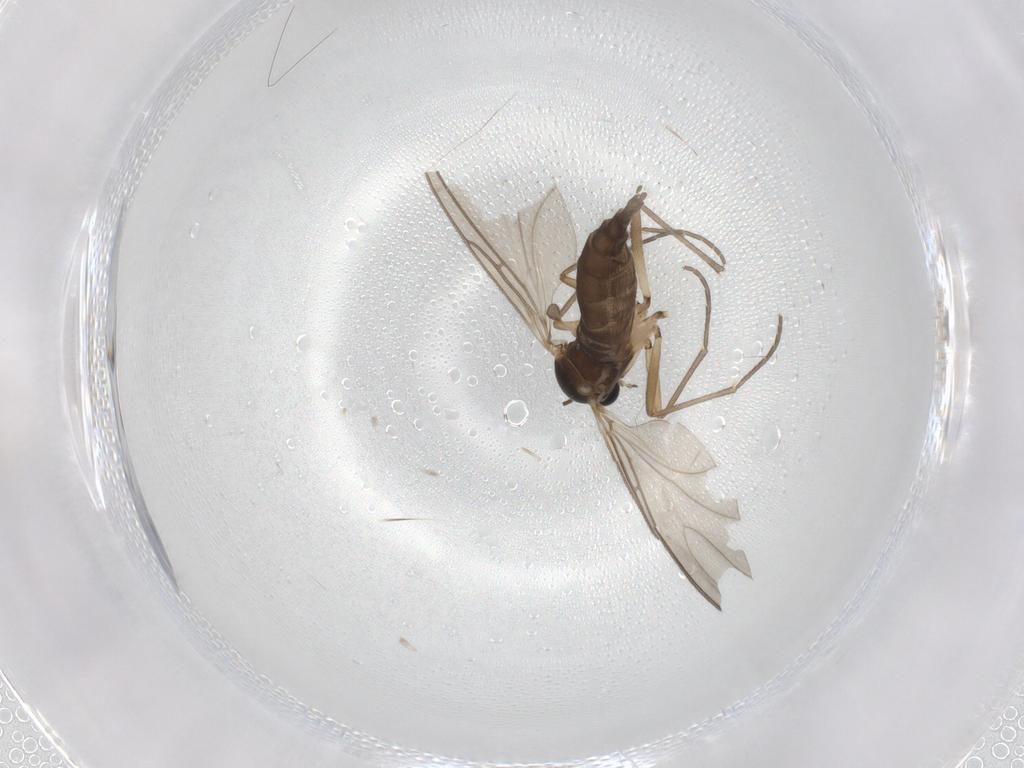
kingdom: Animalia
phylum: Arthropoda
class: Insecta
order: Diptera
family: Sciaridae
